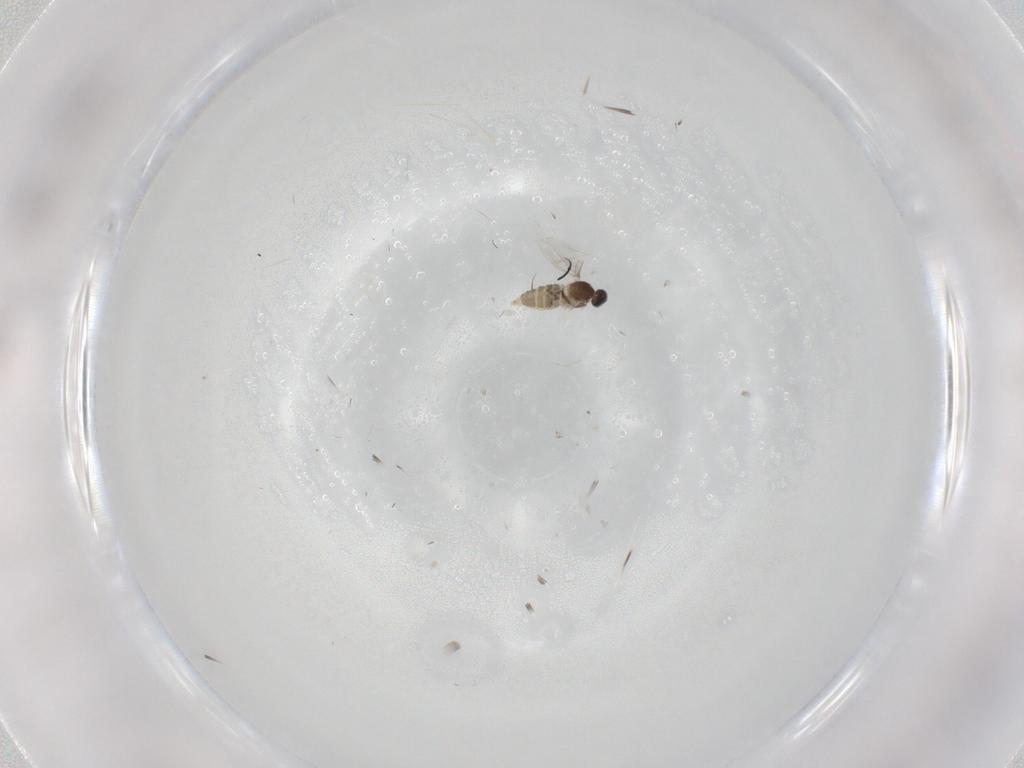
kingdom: Animalia
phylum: Arthropoda
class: Insecta
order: Diptera
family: Cecidomyiidae
